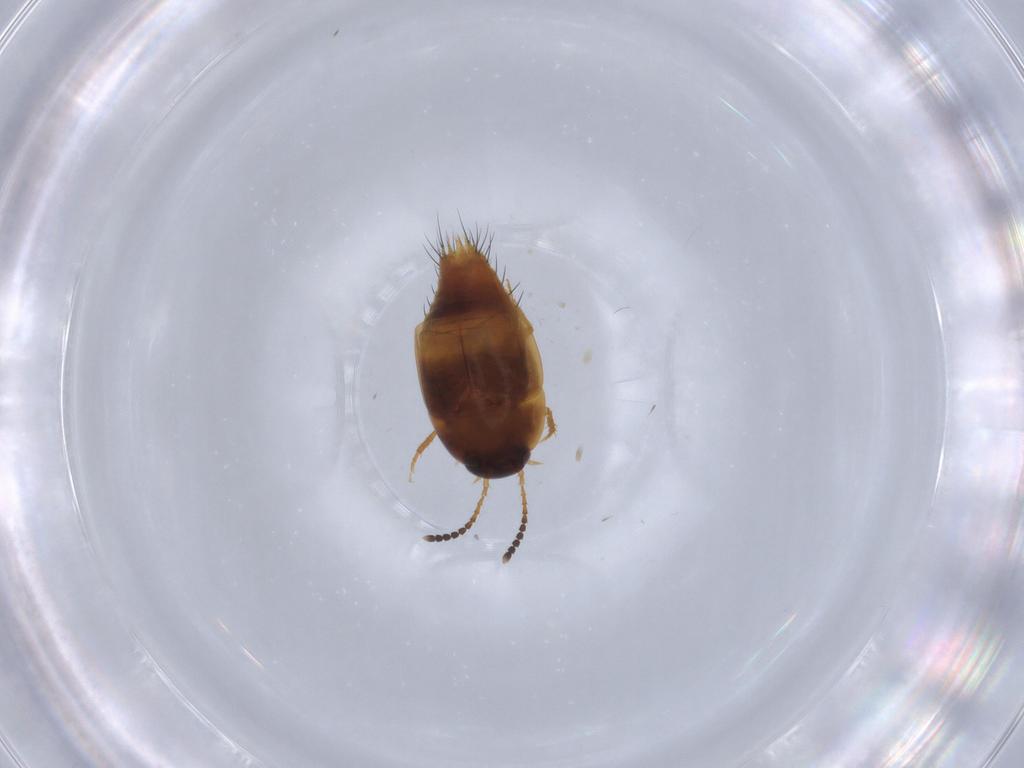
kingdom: Animalia
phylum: Arthropoda
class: Insecta
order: Coleoptera
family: Staphylinidae
